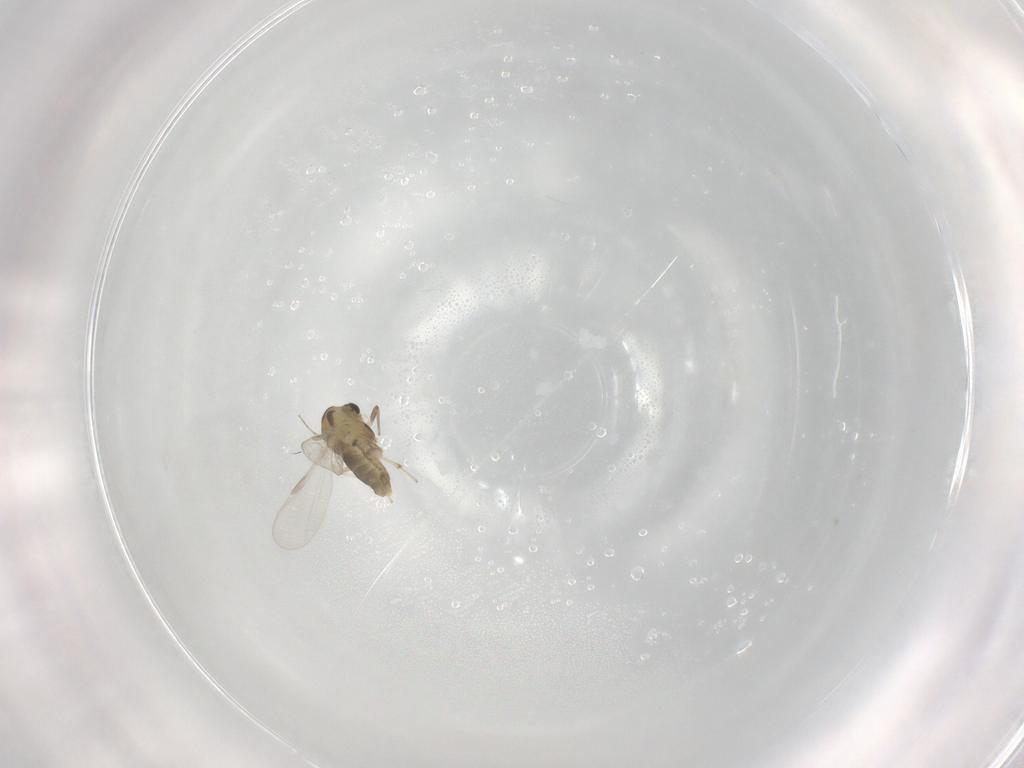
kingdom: Animalia
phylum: Arthropoda
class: Insecta
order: Diptera
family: Chironomidae
